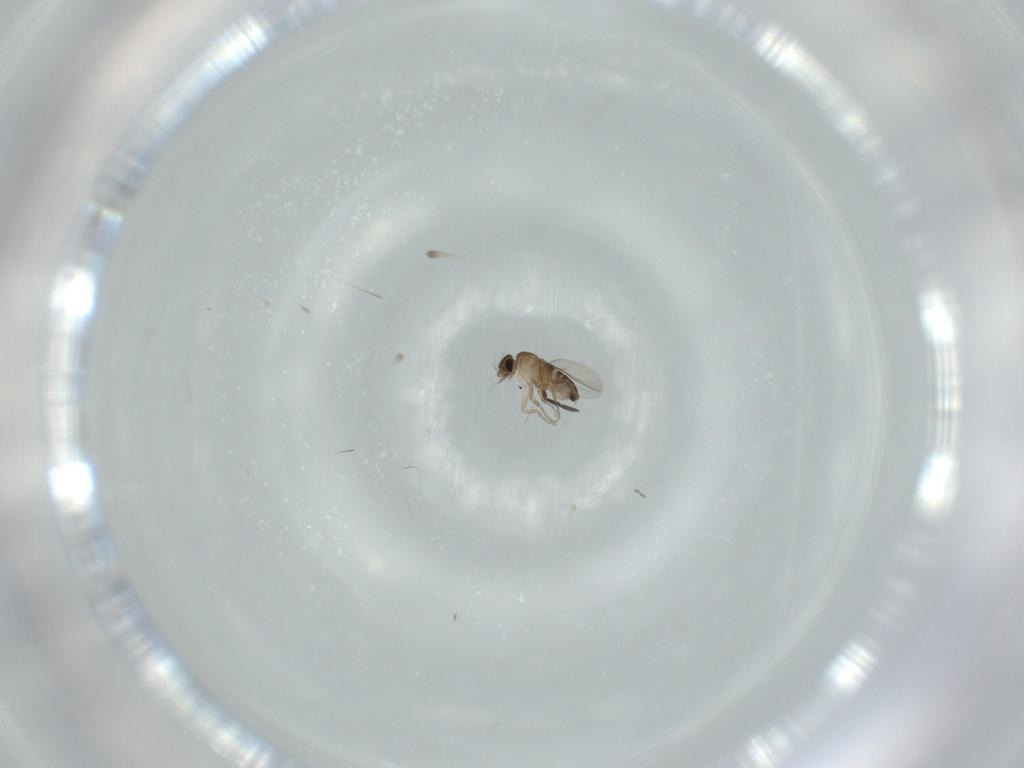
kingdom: Animalia
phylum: Arthropoda
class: Insecta
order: Diptera
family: Phoridae
